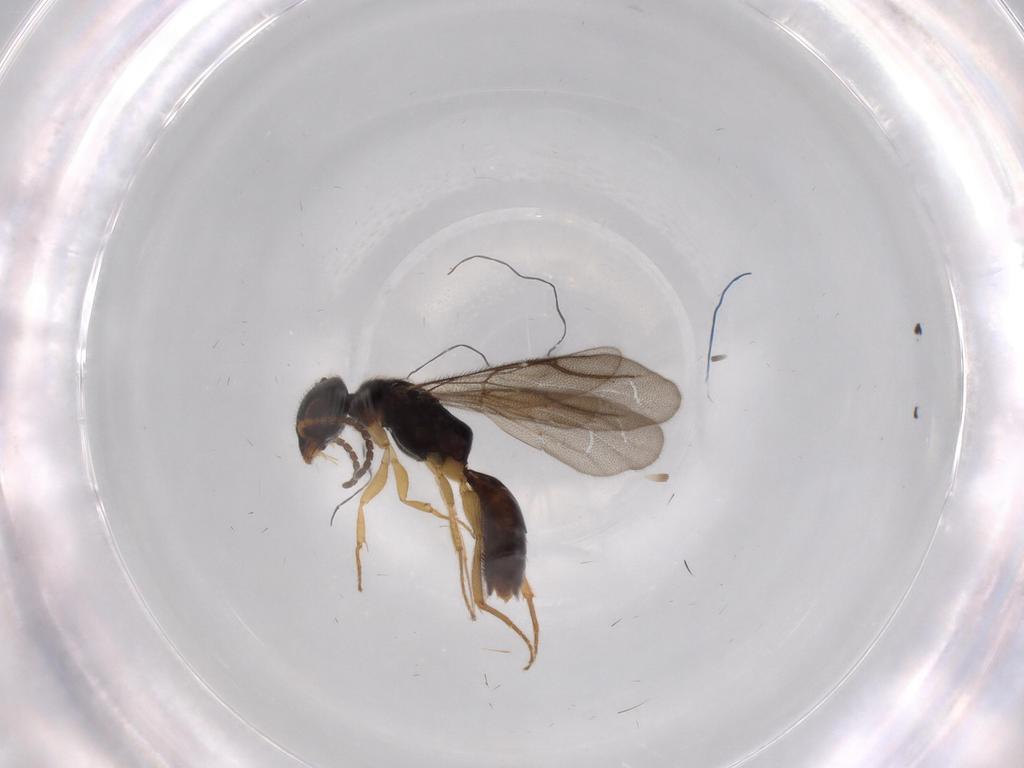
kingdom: Animalia
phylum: Arthropoda
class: Insecta
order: Hymenoptera
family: Bethylidae
